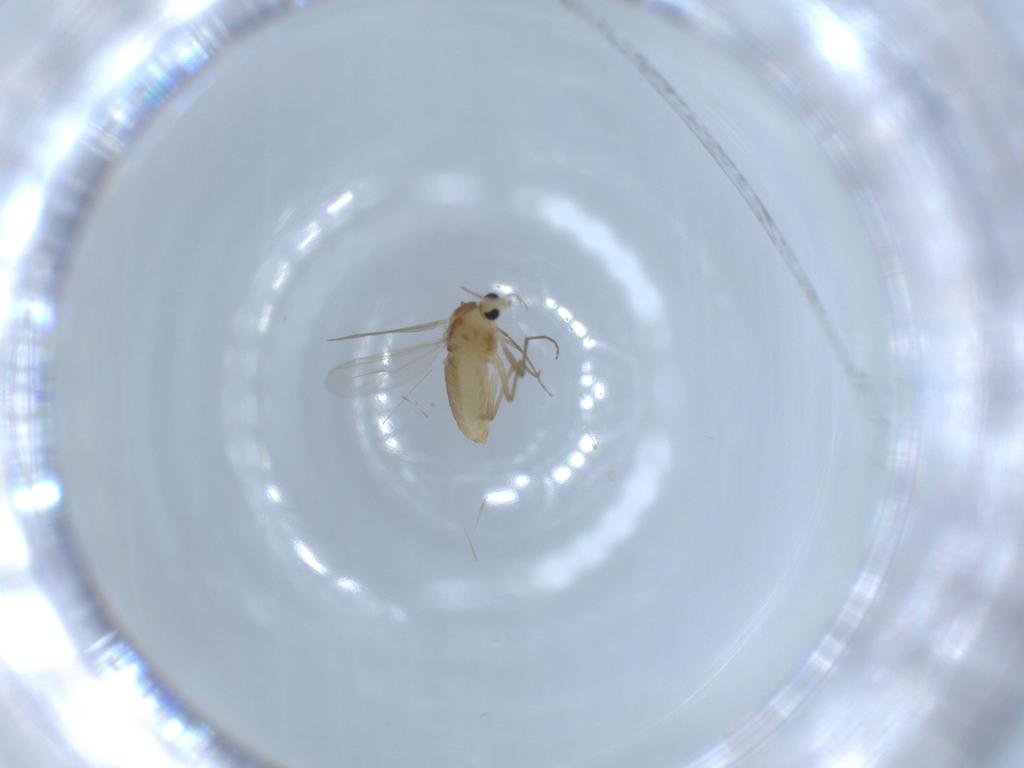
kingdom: Animalia
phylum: Arthropoda
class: Insecta
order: Diptera
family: Chironomidae
